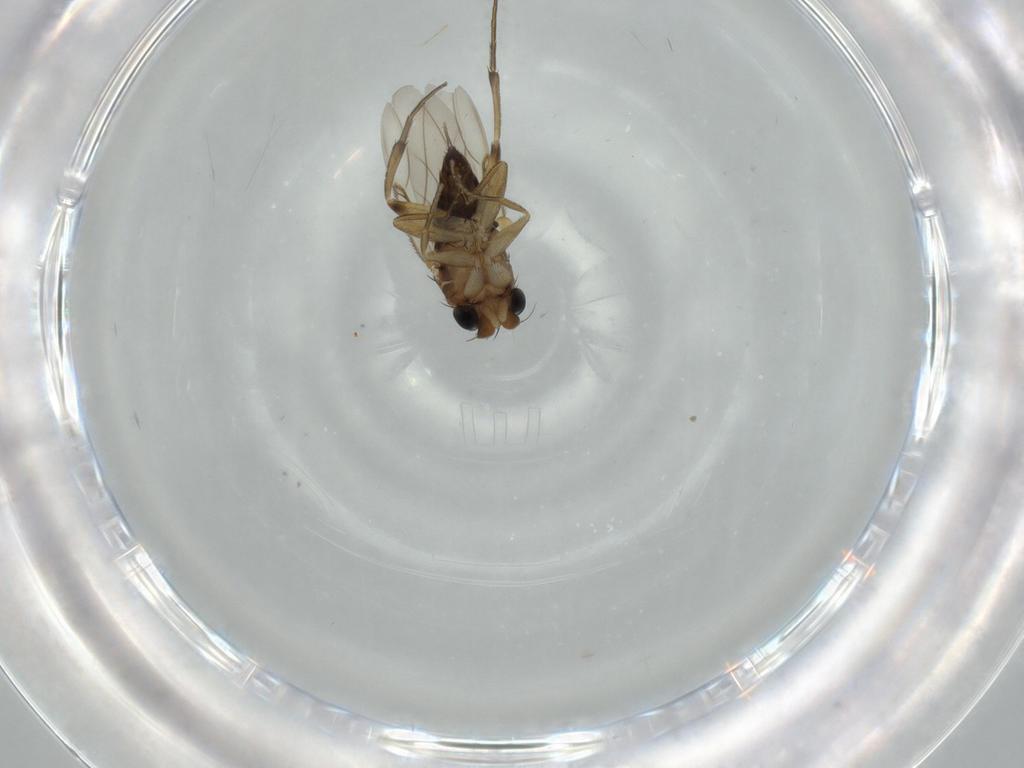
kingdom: Animalia
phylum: Arthropoda
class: Insecta
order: Diptera
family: Phoridae
